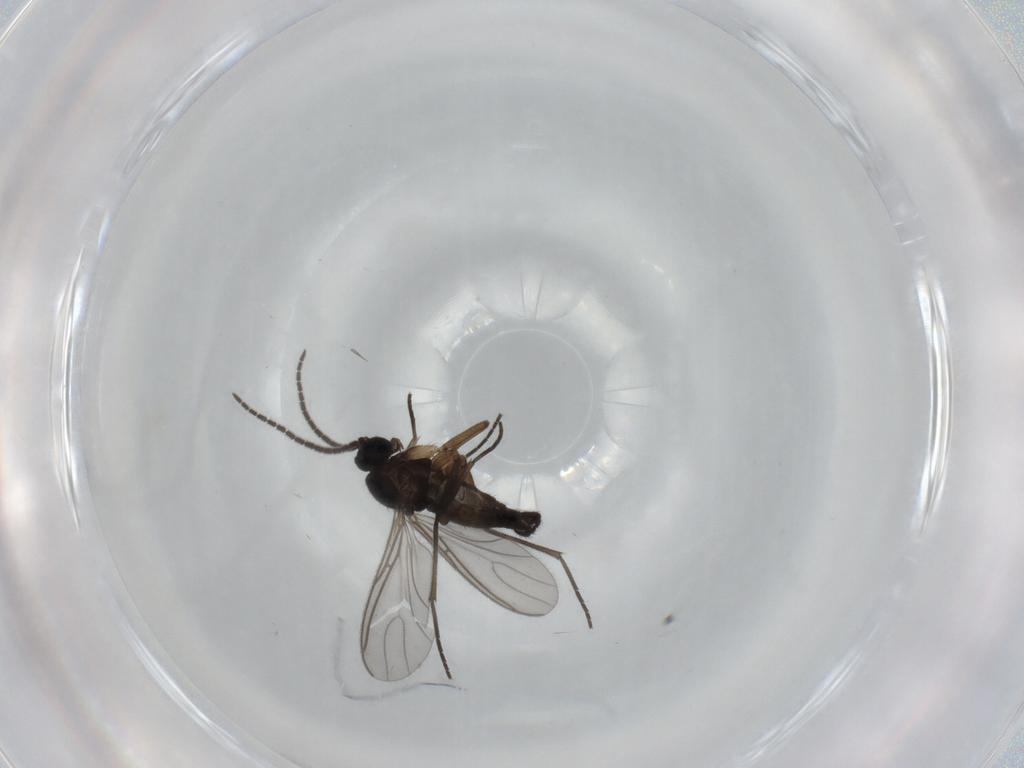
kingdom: Animalia
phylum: Arthropoda
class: Insecta
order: Diptera
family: Sciaridae
